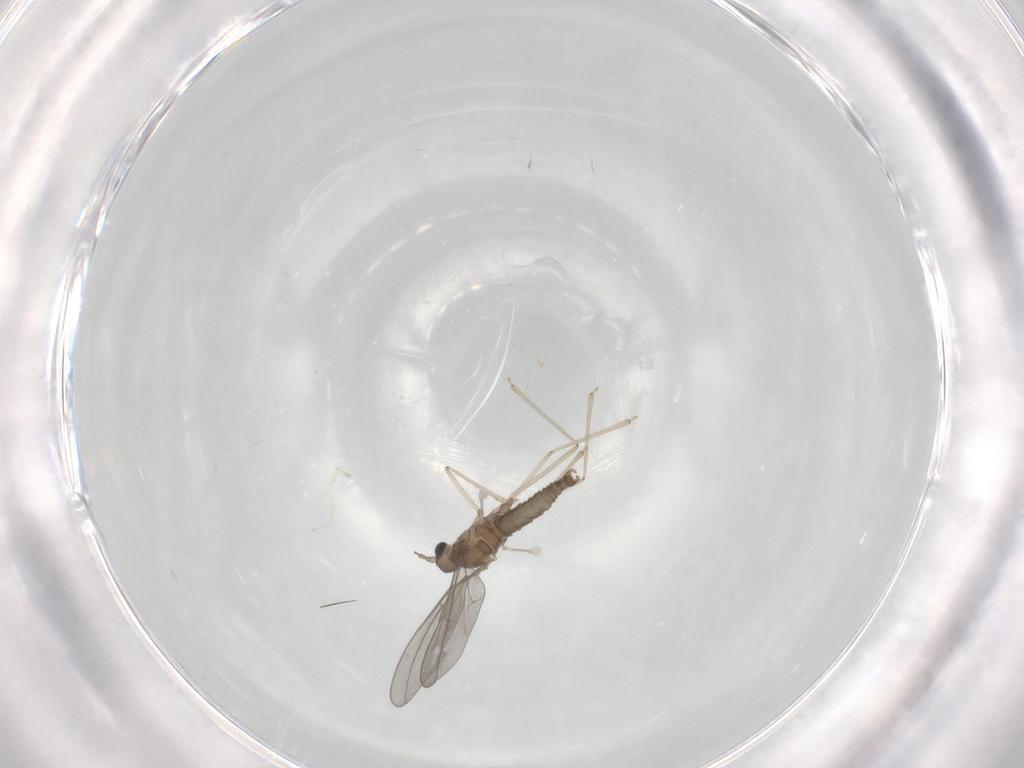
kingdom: Animalia
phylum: Arthropoda
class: Insecta
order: Diptera
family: Cecidomyiidae
